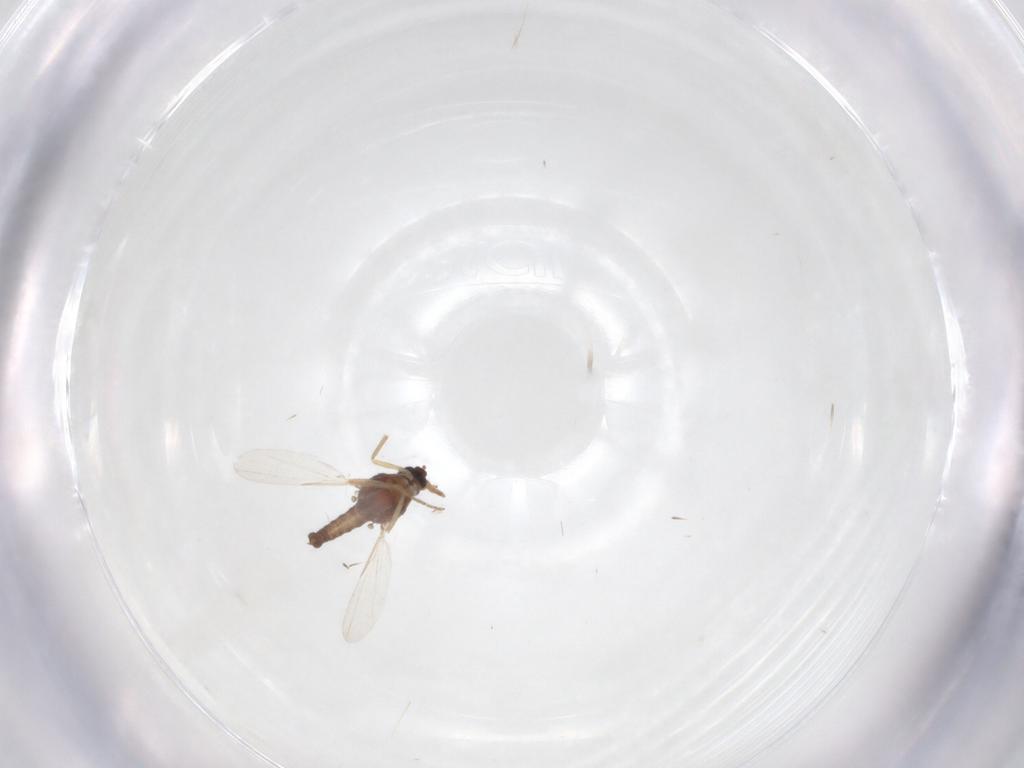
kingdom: Animalia
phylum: Arthropoda
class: Insecta
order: Diptera
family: Ceratopogonidae
